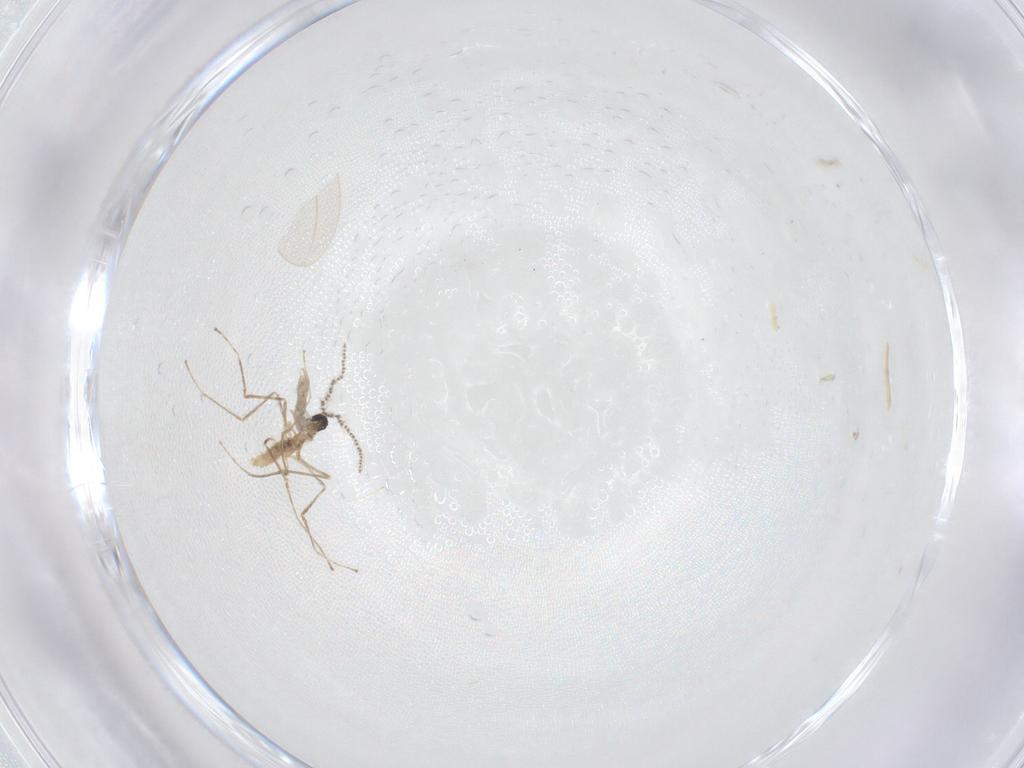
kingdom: Animalia
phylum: Arthropoda
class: Insecta
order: Diptera
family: Cecidomyiidae
